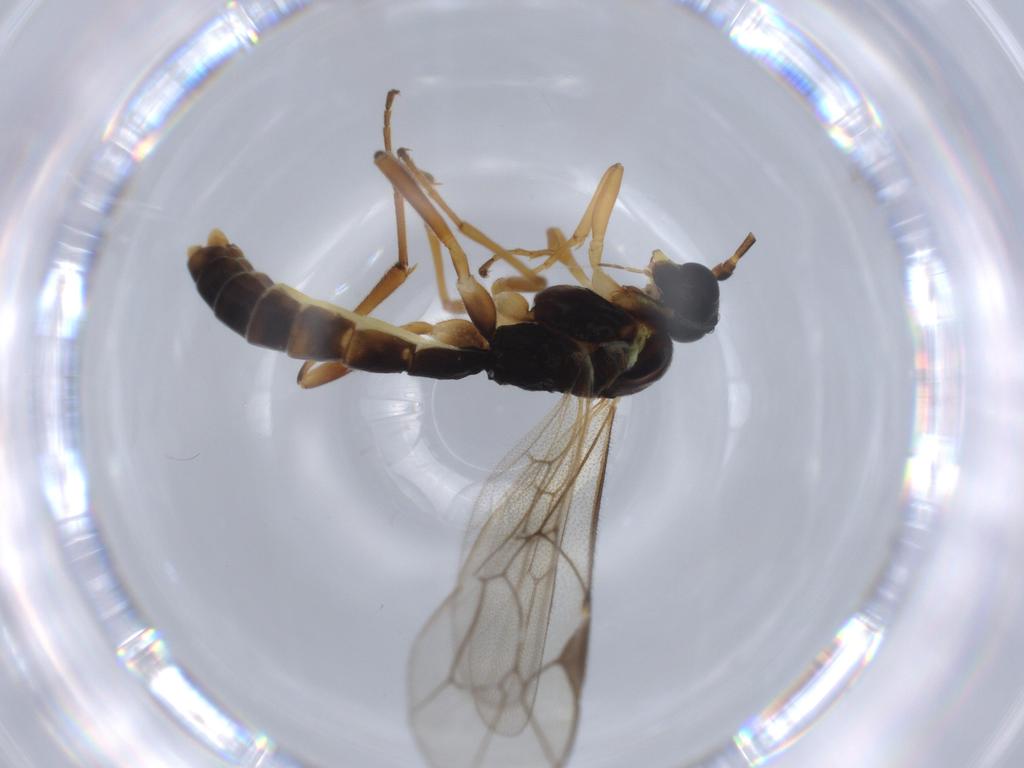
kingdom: Animalia
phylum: Arthropoda
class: Insecta
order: Hymenoptera
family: Ichneumonidae
